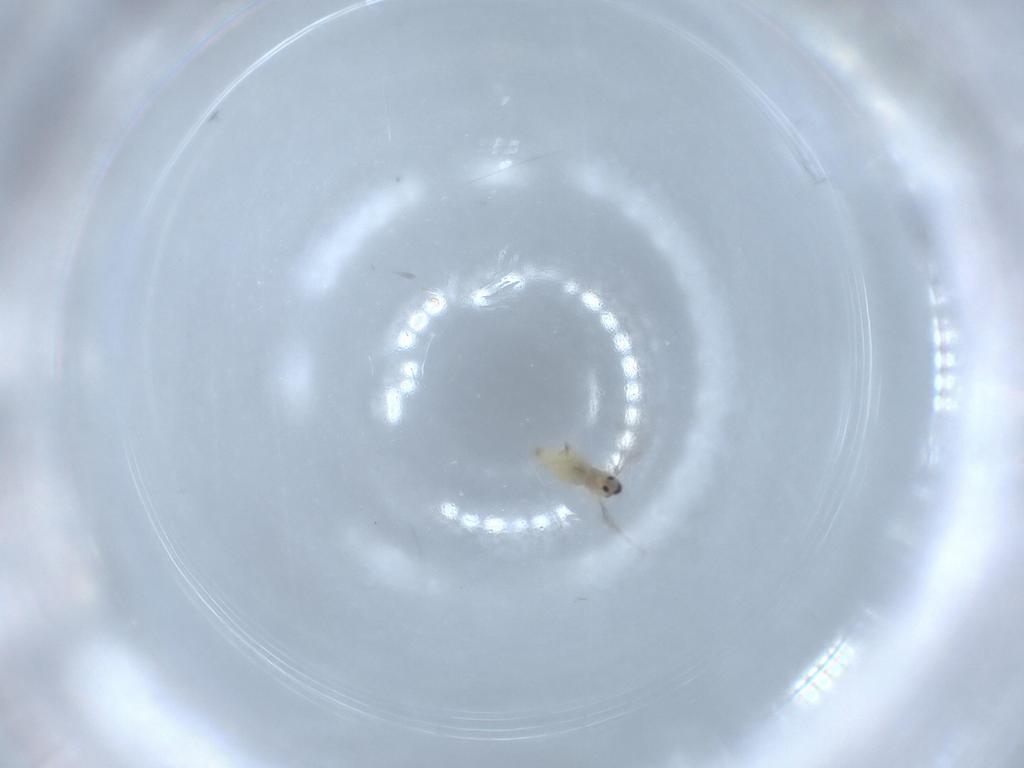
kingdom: Animalia
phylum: Arthropoda
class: Insecta
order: Diptera
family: Cecidomyiidae
